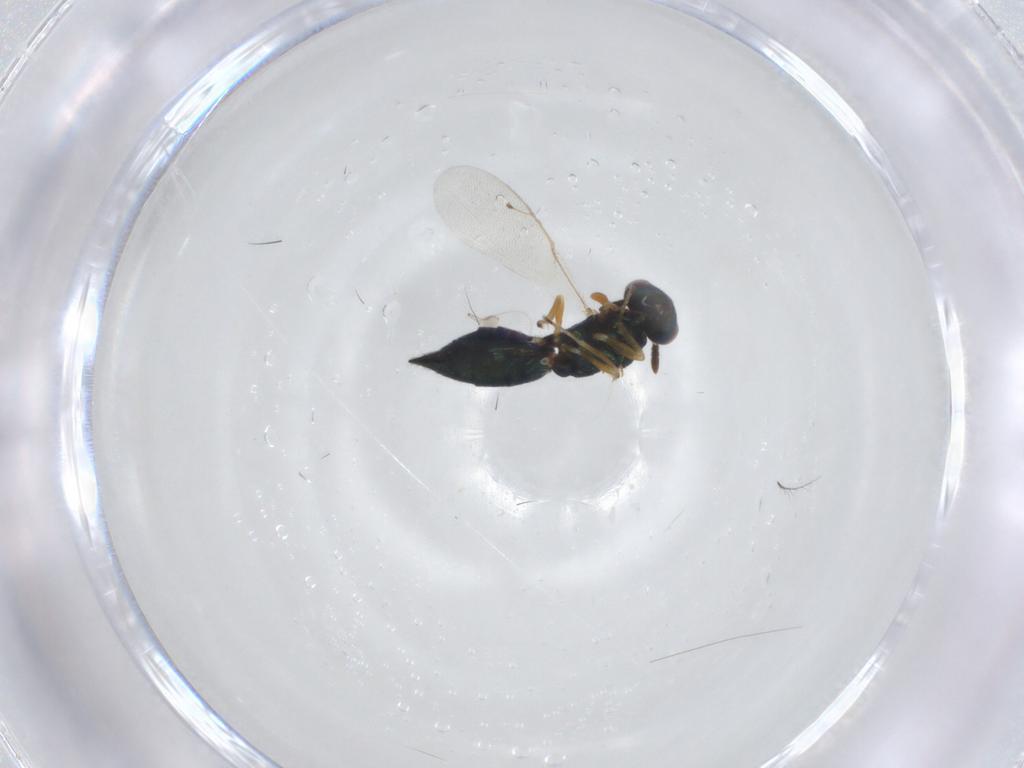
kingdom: Animalia
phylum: Arthropoda
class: Insecta
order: Hymenoptera
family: Pteromalidae
